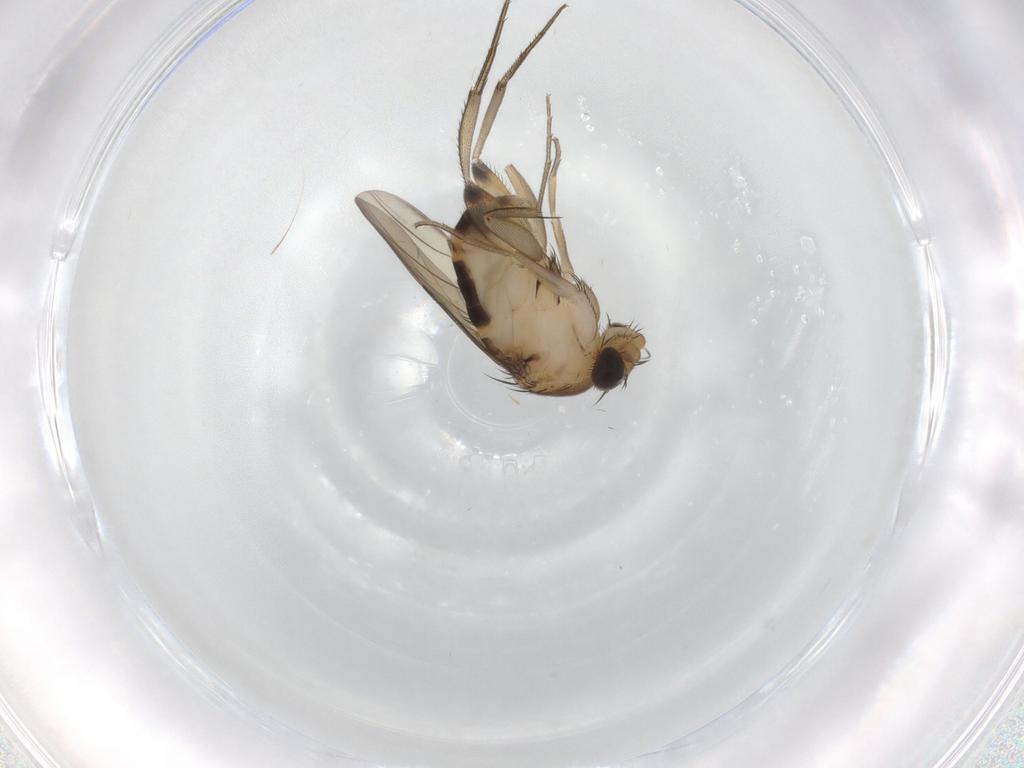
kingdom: Animalia
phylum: Arthropoda
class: Insecta
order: Diptera
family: Phoridae
